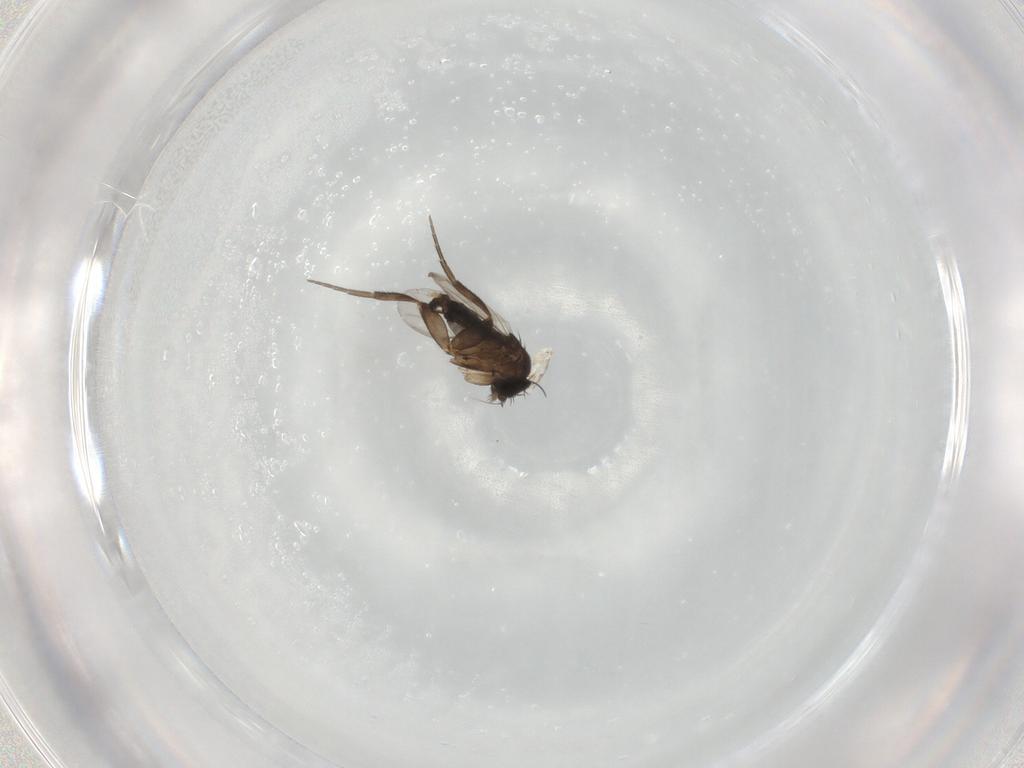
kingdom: Animalia
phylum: Arthropoda
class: Insecta
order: Diptera
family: Phoridae
